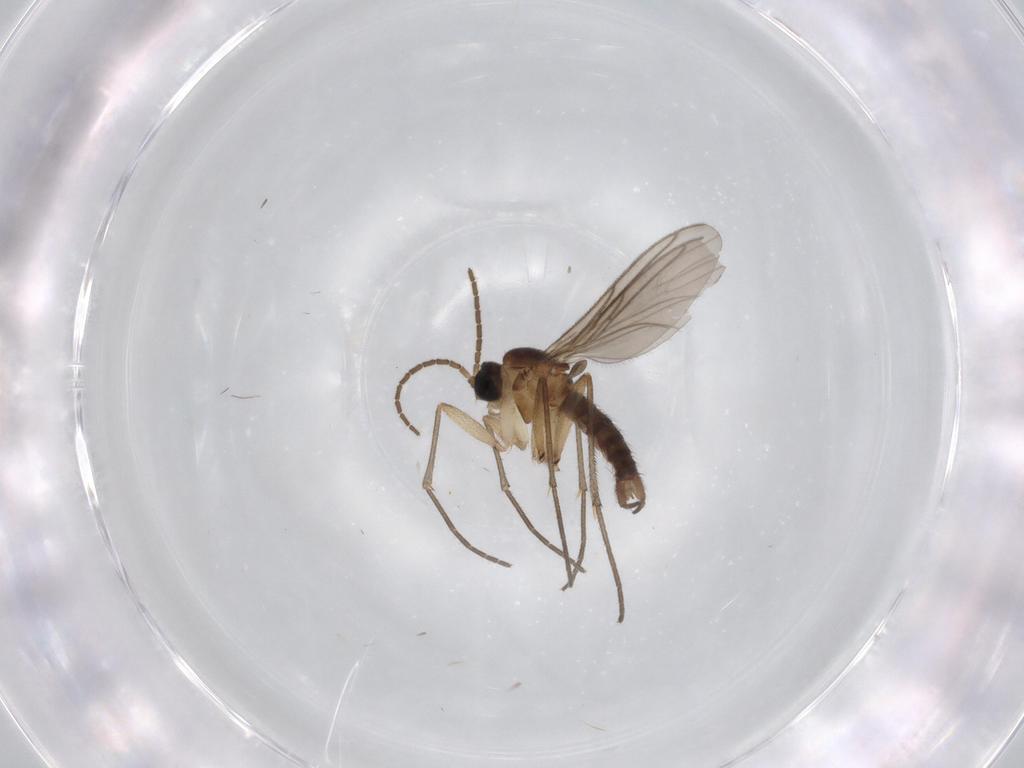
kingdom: Animalia
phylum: Arthropoda
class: Insecta
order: Diptera
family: Sciaridae
